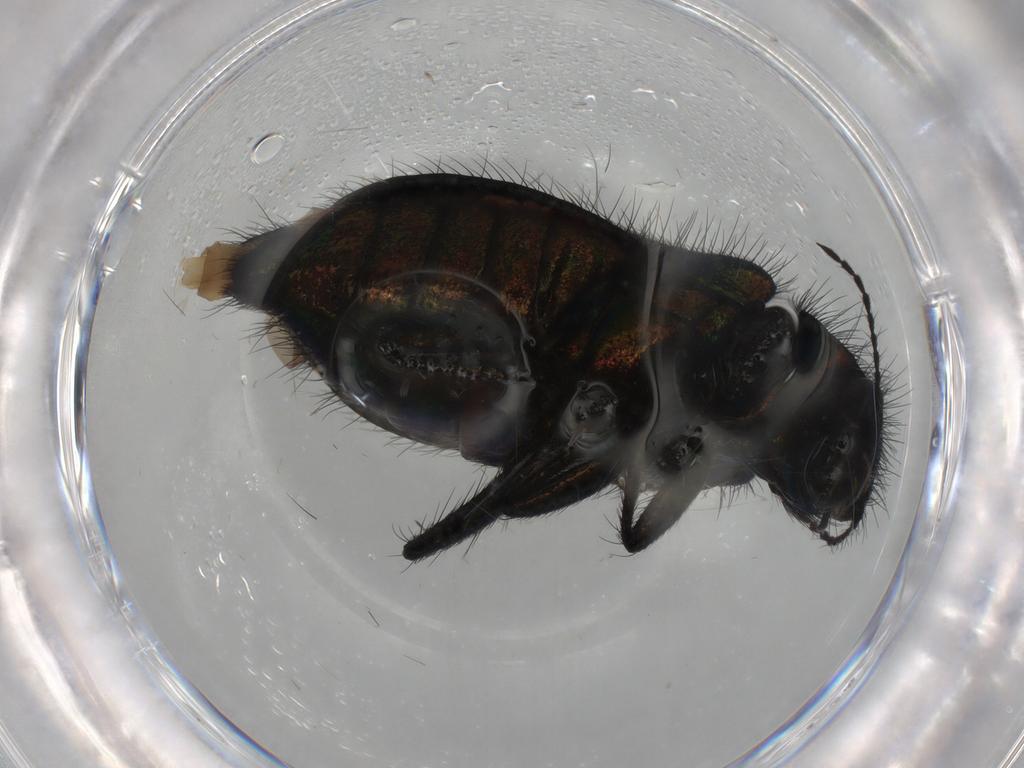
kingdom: Animalia
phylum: Arthropoda
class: Insecta
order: Coleoptera
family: Melyridae
